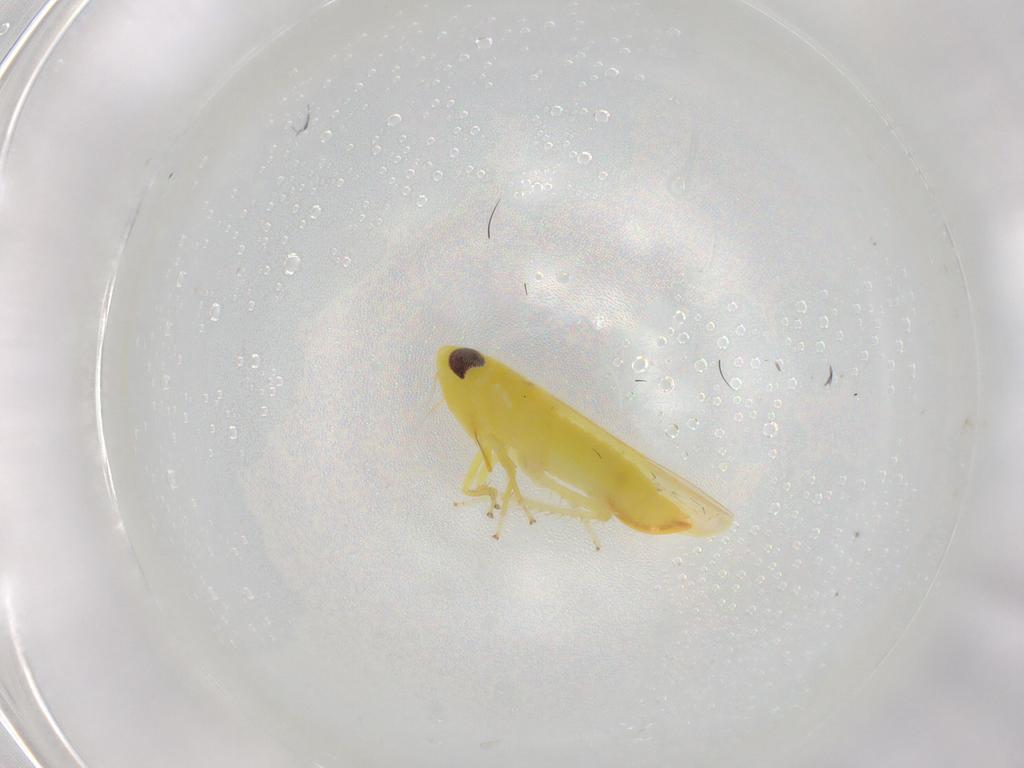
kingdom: Animalia
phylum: Arthropoda
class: Insecta
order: Hemiptera
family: Cicadellidae
